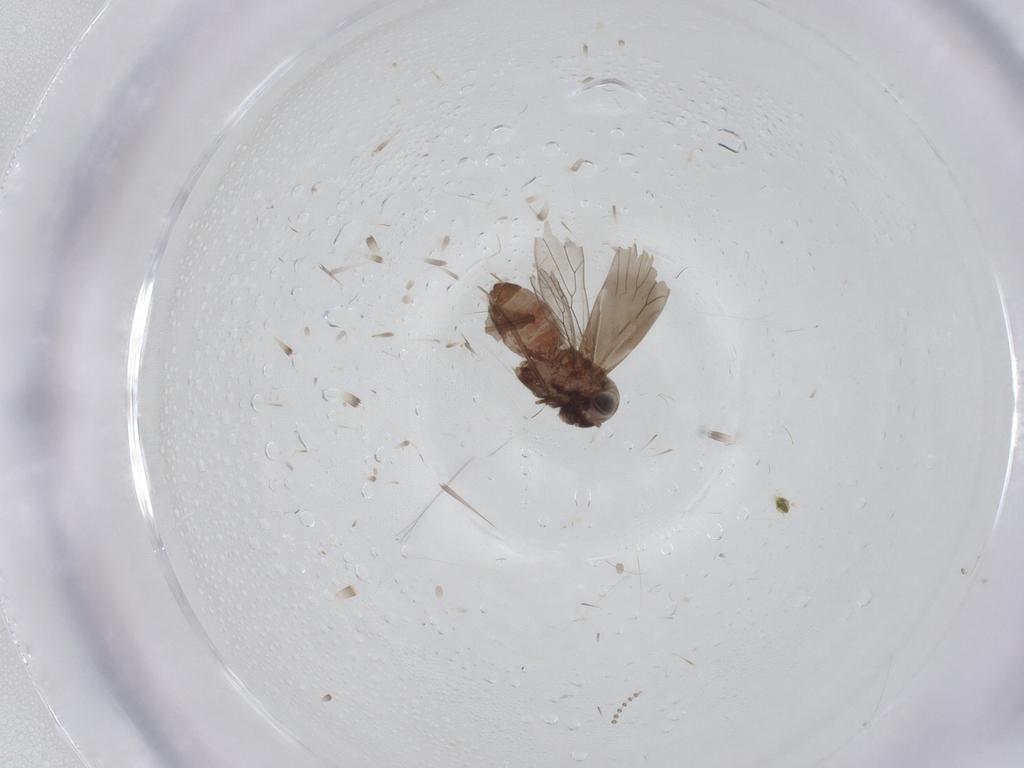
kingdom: Animalia
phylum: Arthropoda
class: Insecta
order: Psocodea
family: Amphientomidae
